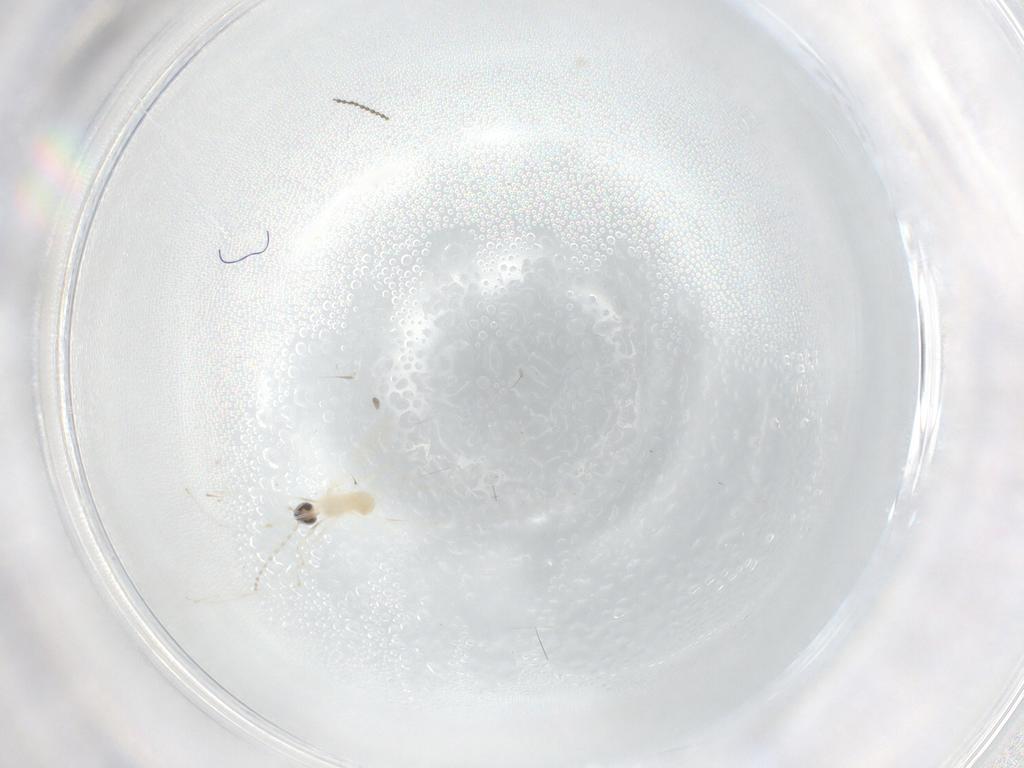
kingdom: Animalia
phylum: Arthropoda
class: Insecta
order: Diptera
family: Cecidomyiidae
